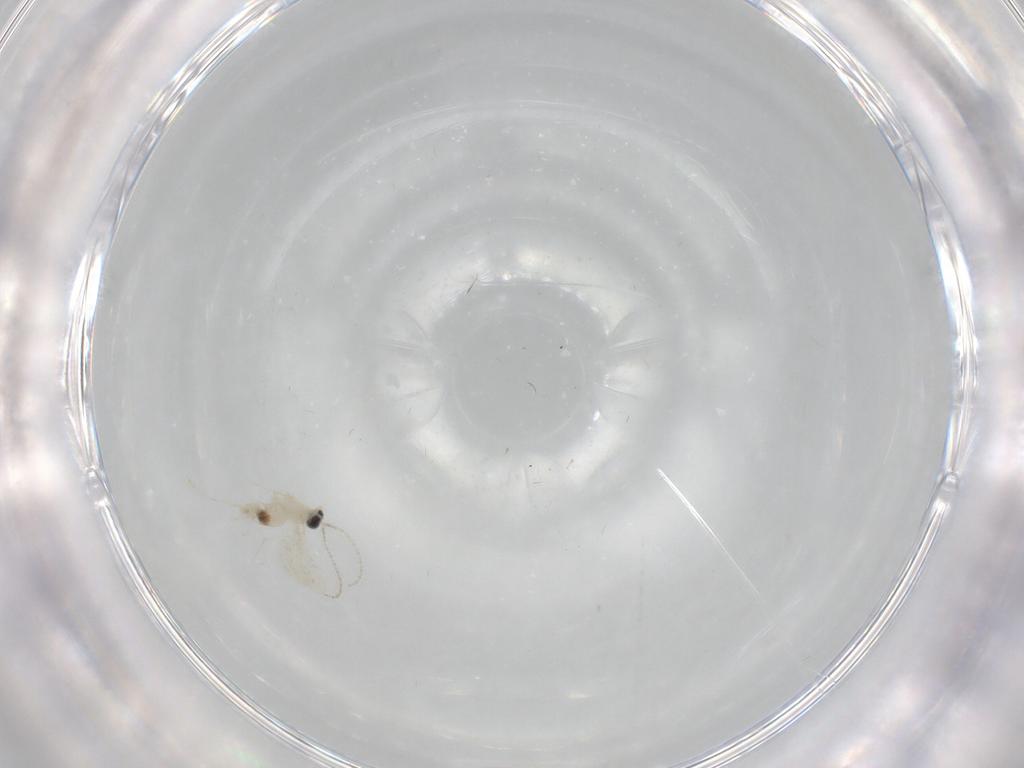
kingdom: Animalia
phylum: Arthropoda
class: Insecta
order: Diptera
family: Cecidomyiidae
